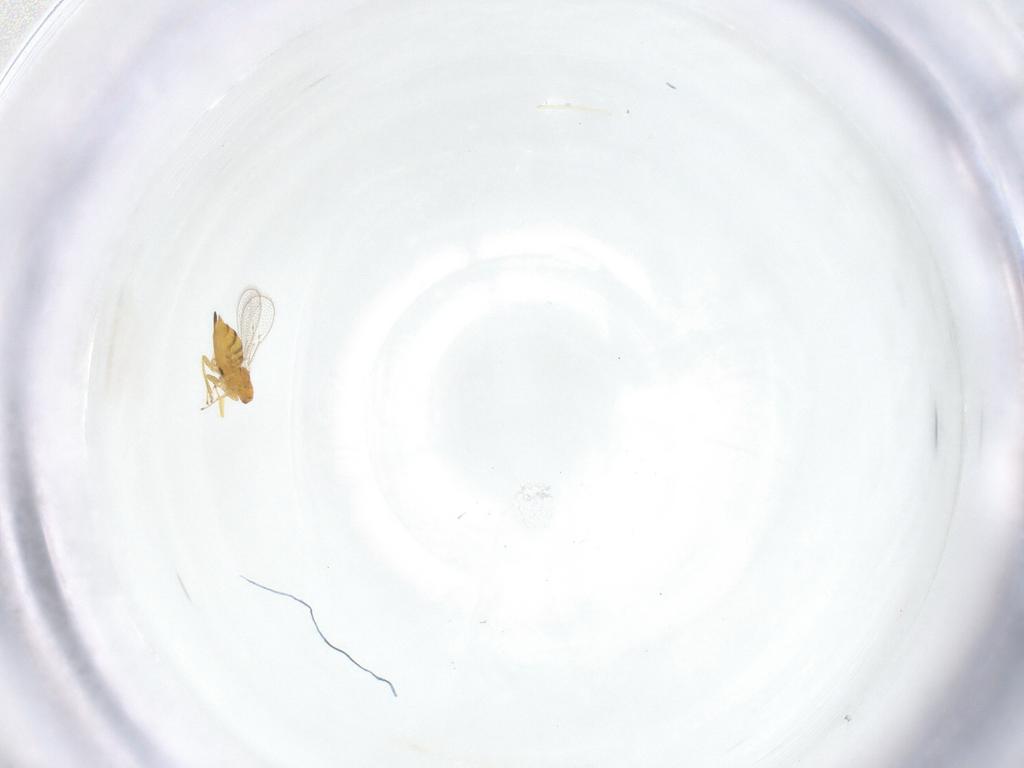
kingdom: Animalia
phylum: Arthropoda
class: Insecta
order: Hymenoptera
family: Eulophidae
